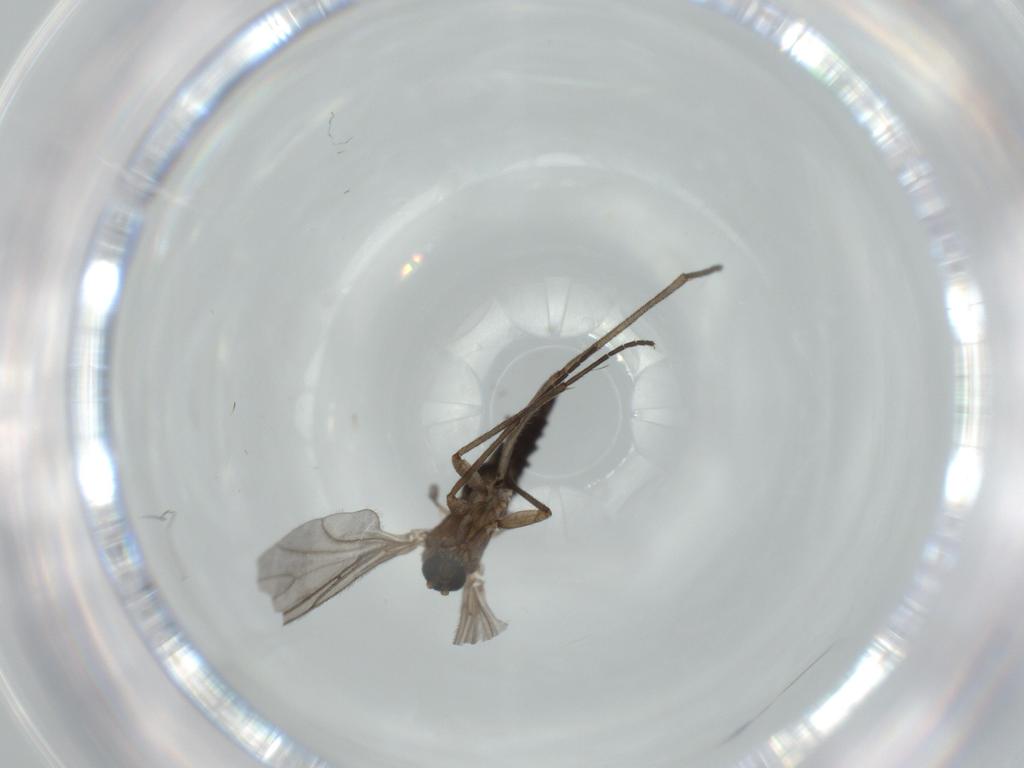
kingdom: Animalia
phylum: Arthropoda
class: Insecta
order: Diptera
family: Sciaridae
